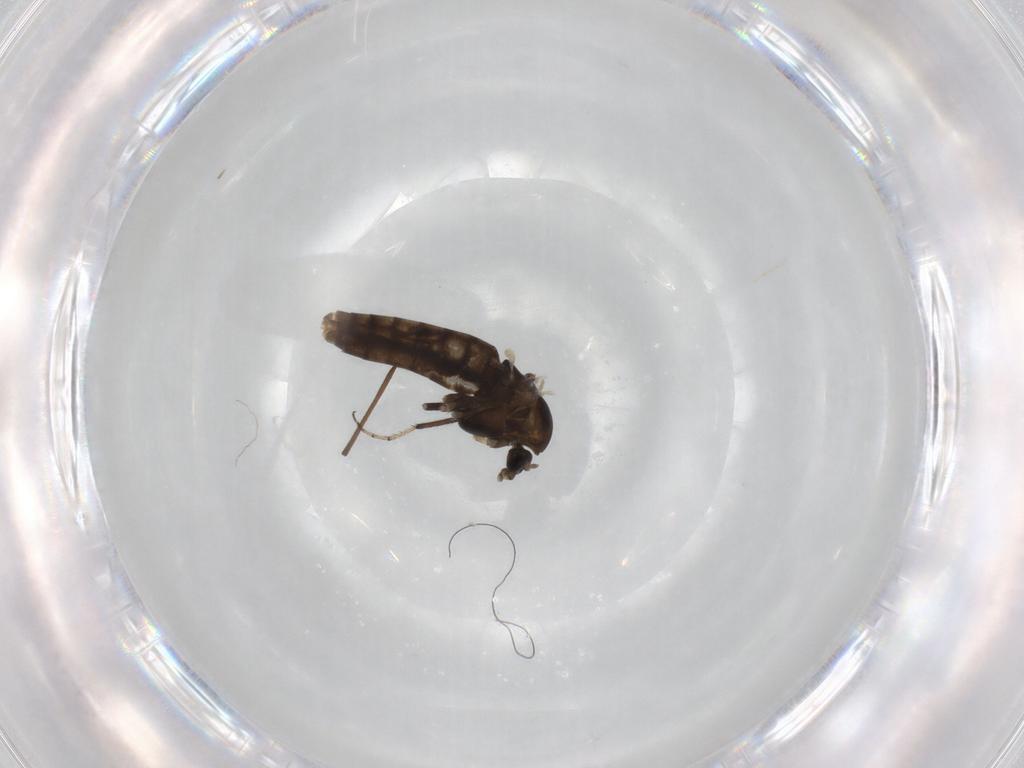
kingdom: Animalia
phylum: Arthropoda
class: Insecta
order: Diptera
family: Chironomidae
